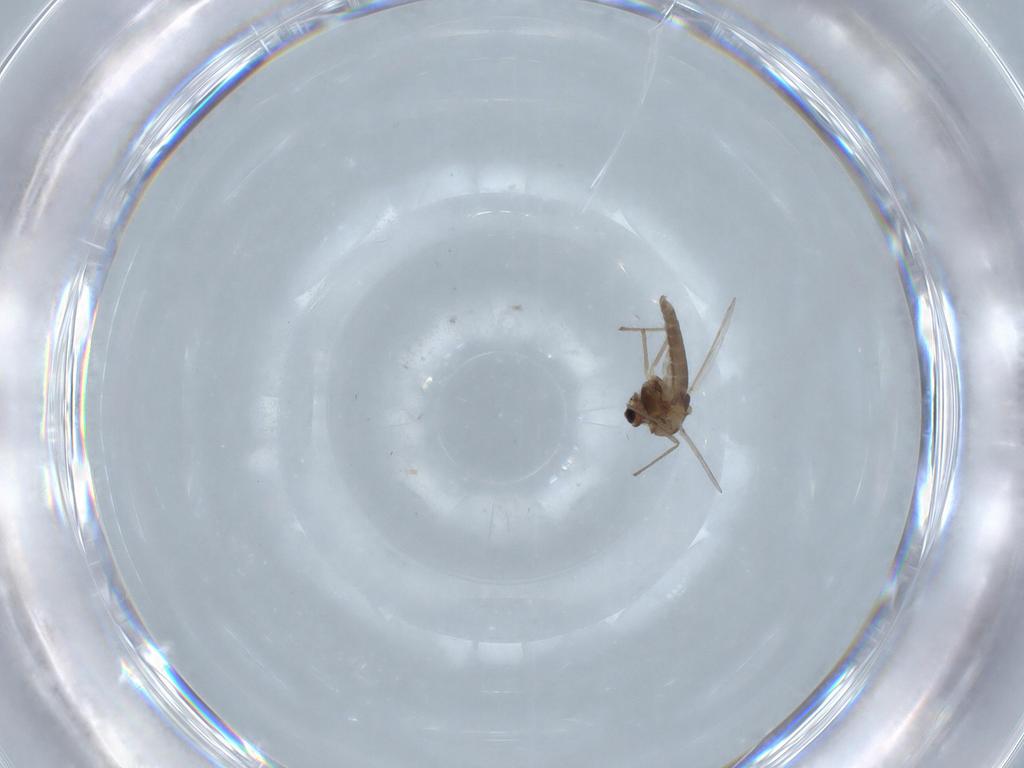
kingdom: Animalia
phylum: Arthropoda
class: Insecta
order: Diptera
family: Chironomidae
